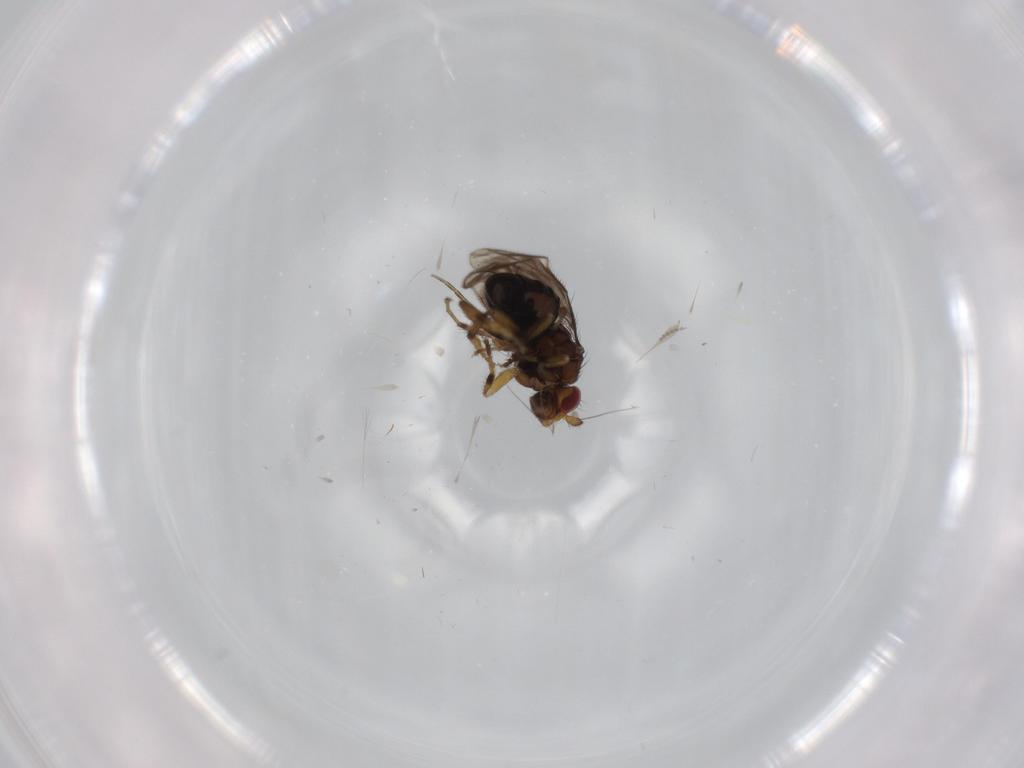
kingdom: Animalia
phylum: Arthropoda
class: Insecta
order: Diptera
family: Sphaeroceridae
